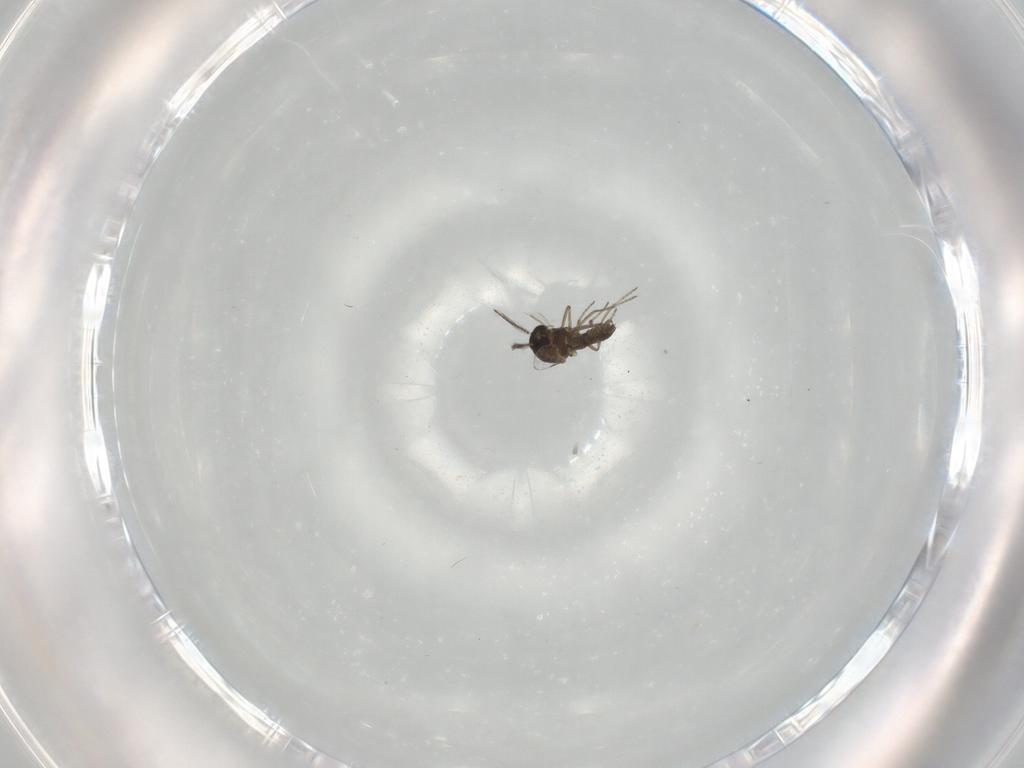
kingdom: Animalia
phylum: Arthropoda
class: Insecta
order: Diptera
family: Ceratopogonidae
